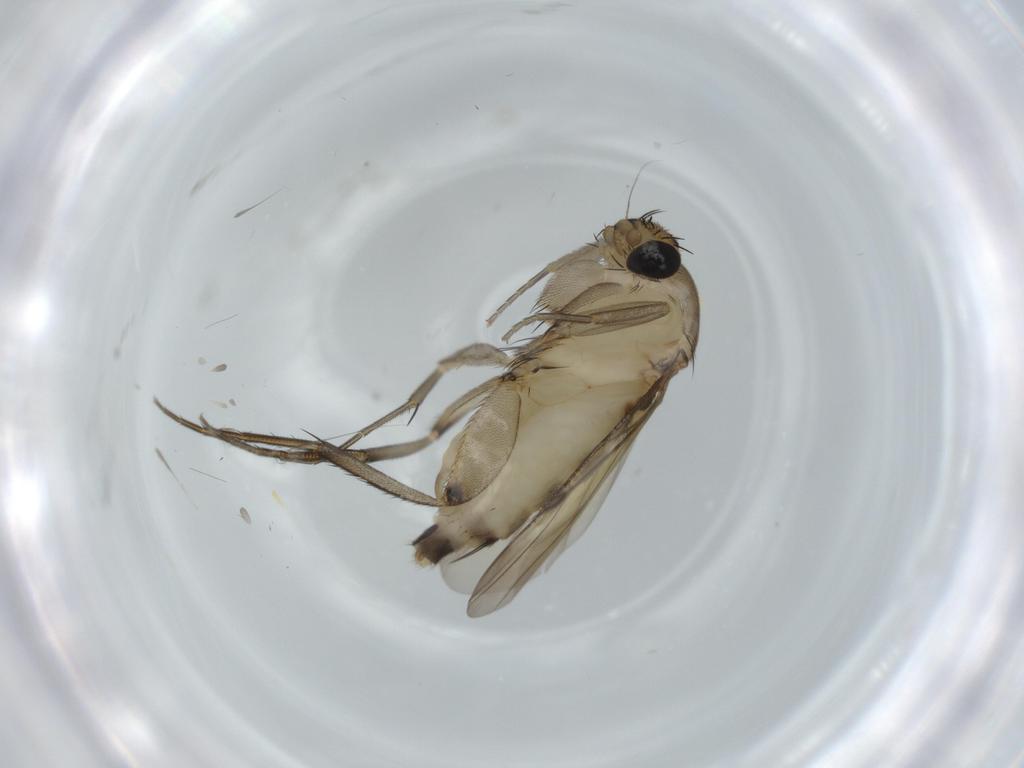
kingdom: Animalia
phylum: Arthropoda
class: Insecta
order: Diptera
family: Phoridae
